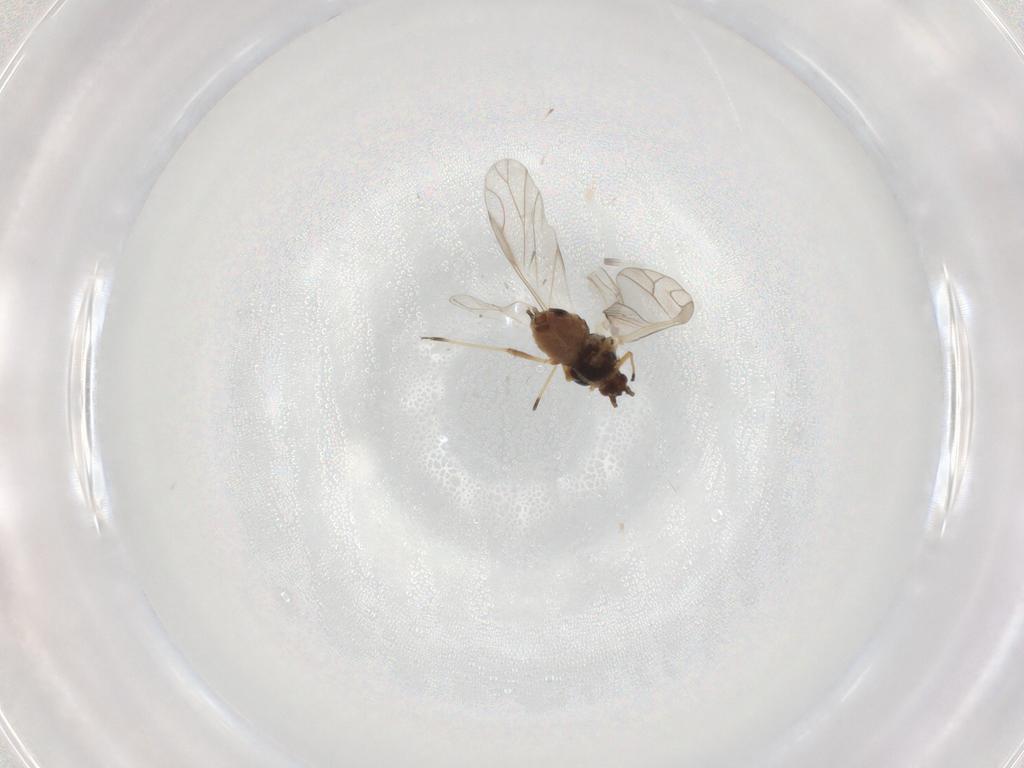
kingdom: Animalia
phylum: Arthropoda
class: Insecta
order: Hemiptera
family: Aphididae
